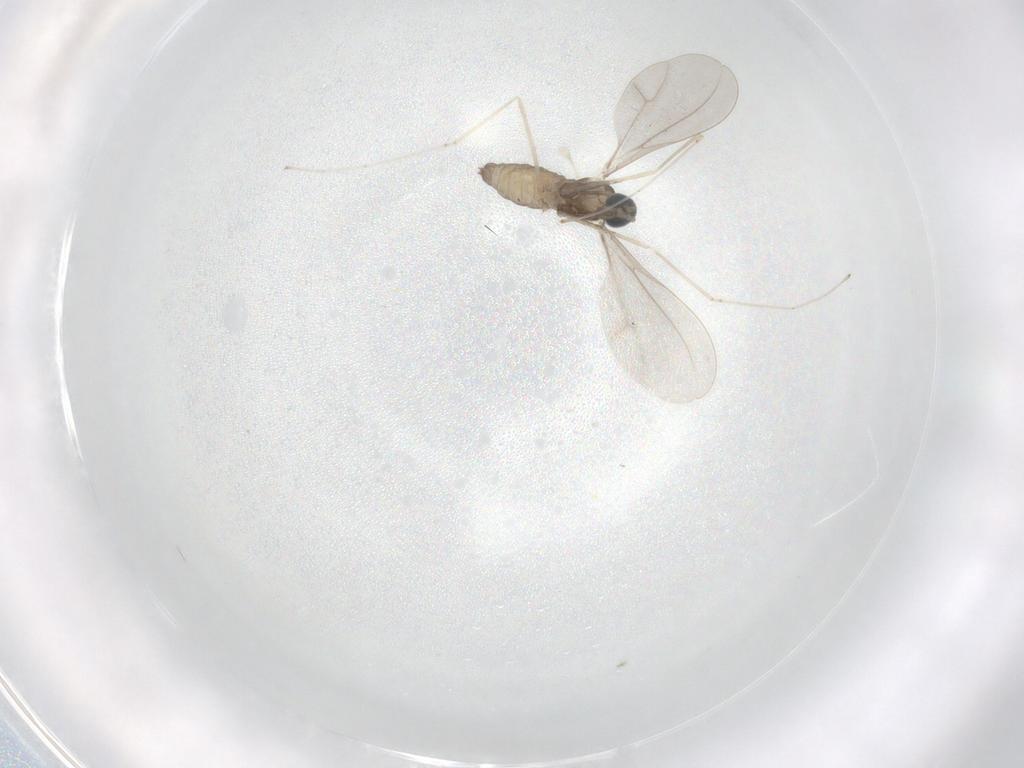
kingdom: Animalia
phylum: Arthropoda
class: Insecta
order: Diptera
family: Cecidomyiidae
